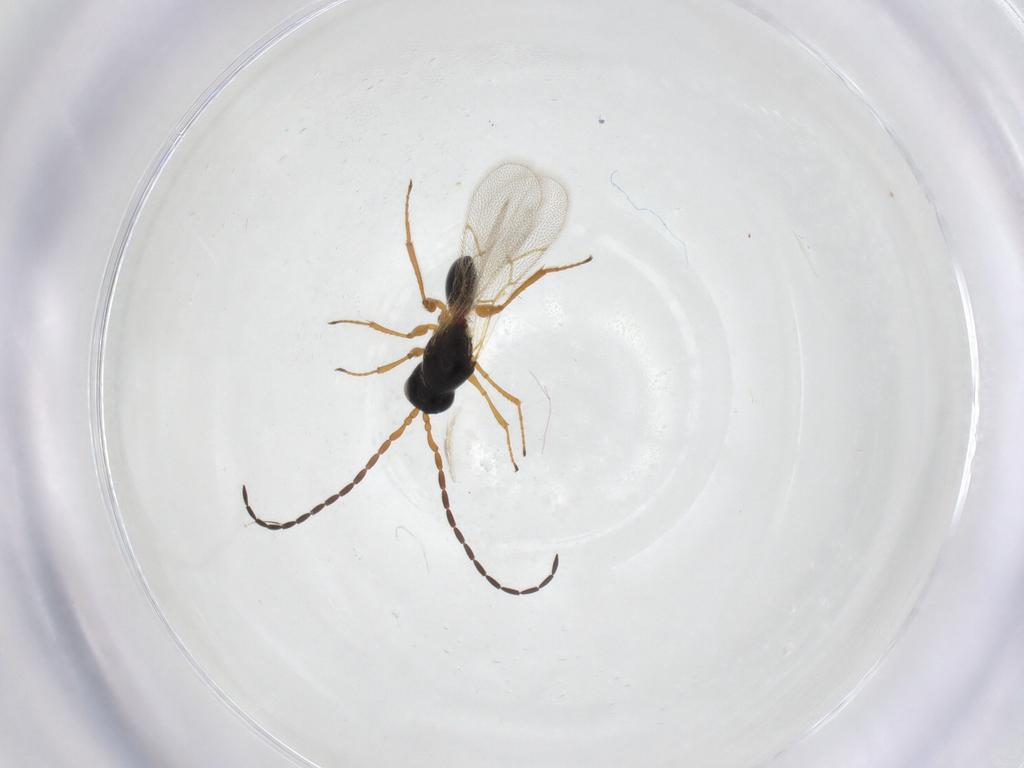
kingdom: Animalia
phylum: Arthropoda
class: Insecta
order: Hymenoptera
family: Figitidae
